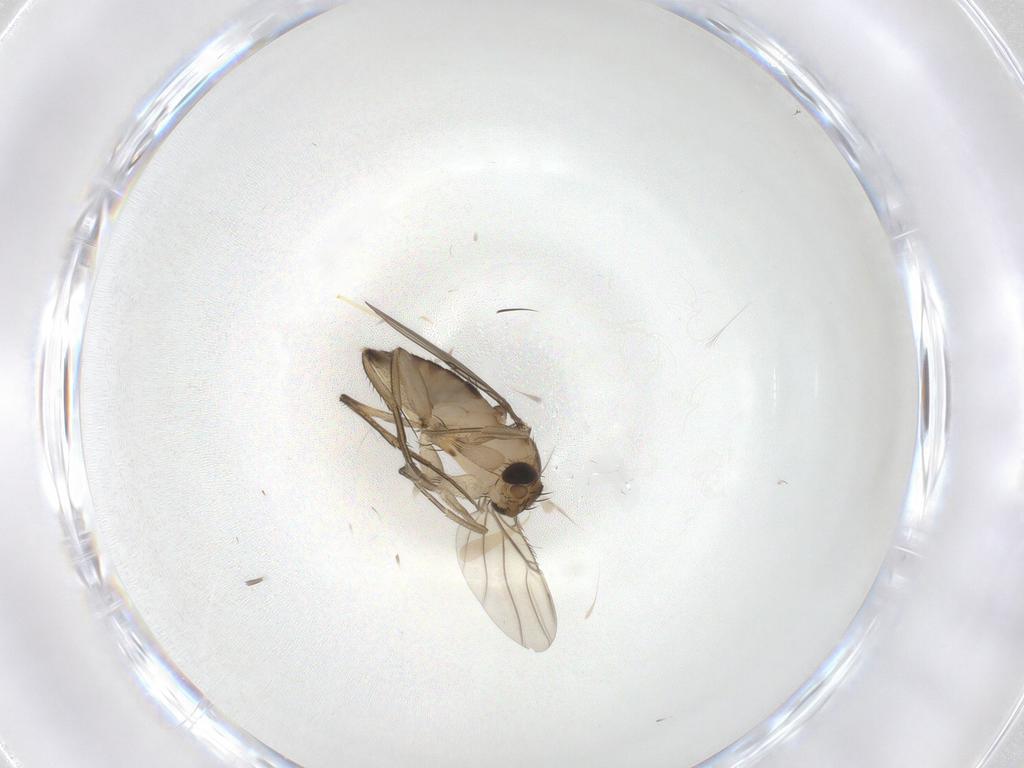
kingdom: Animalia
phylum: Arthropoda
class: Insecta
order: Diptera
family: Phoridae
